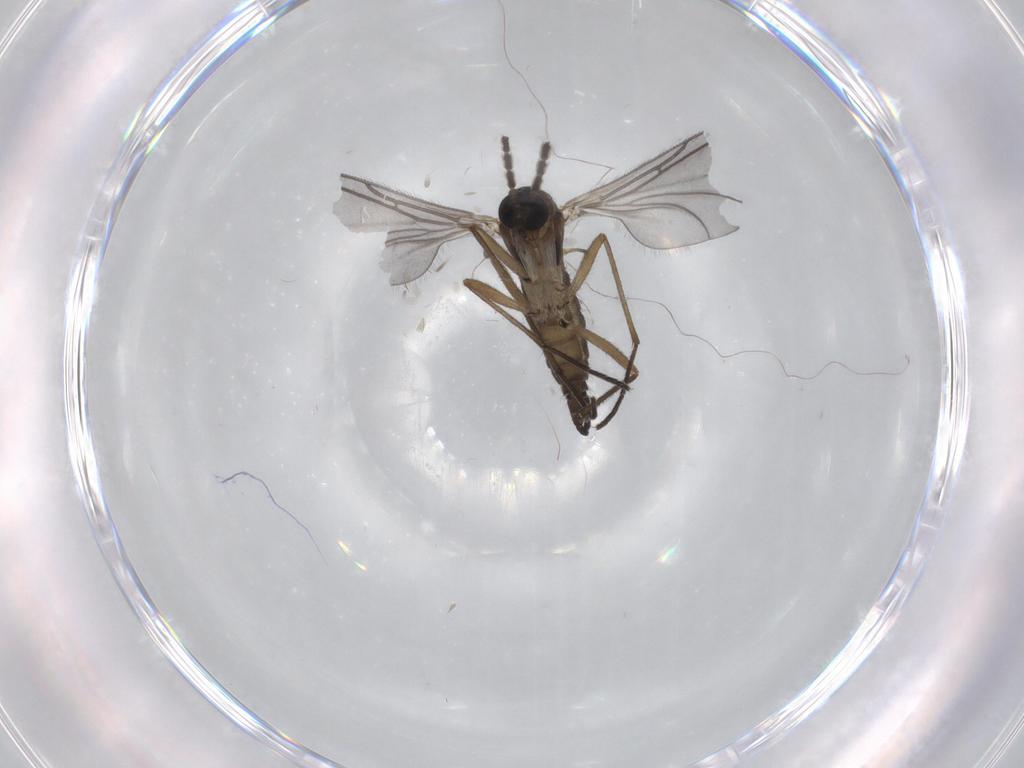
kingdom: Animalia
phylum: Arthropoda
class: Insecta
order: Diptera
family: Sciaridae
